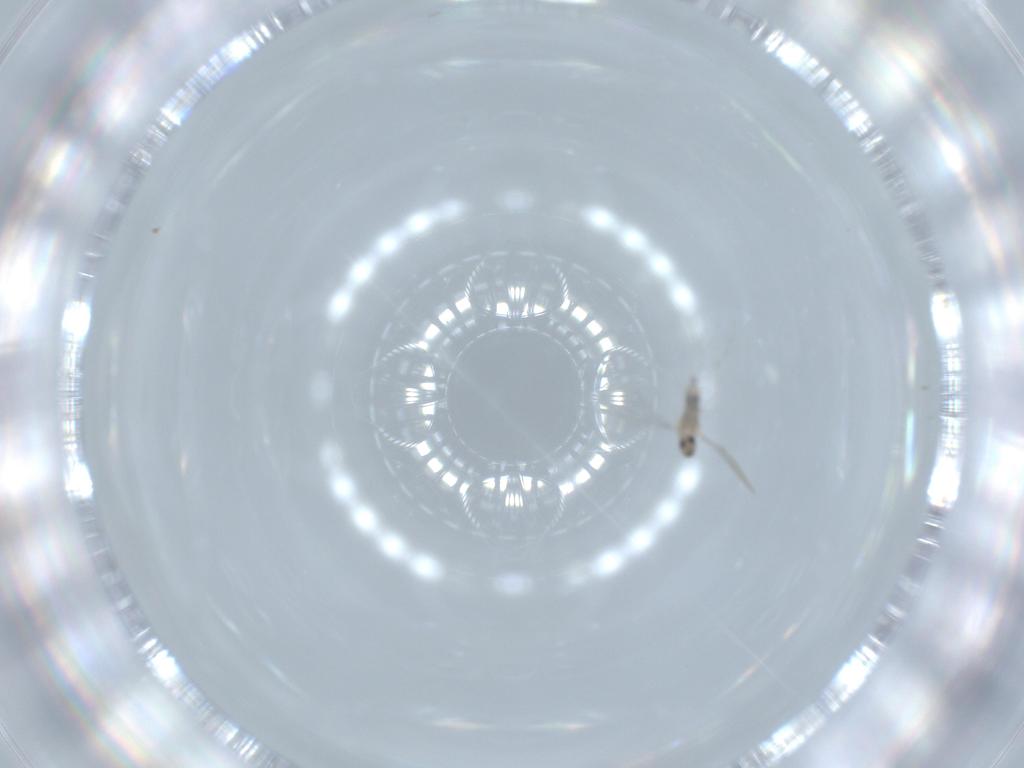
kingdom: Animalia
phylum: Arthropoda
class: Insecta
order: Diptera
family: Cecidomyiidae
